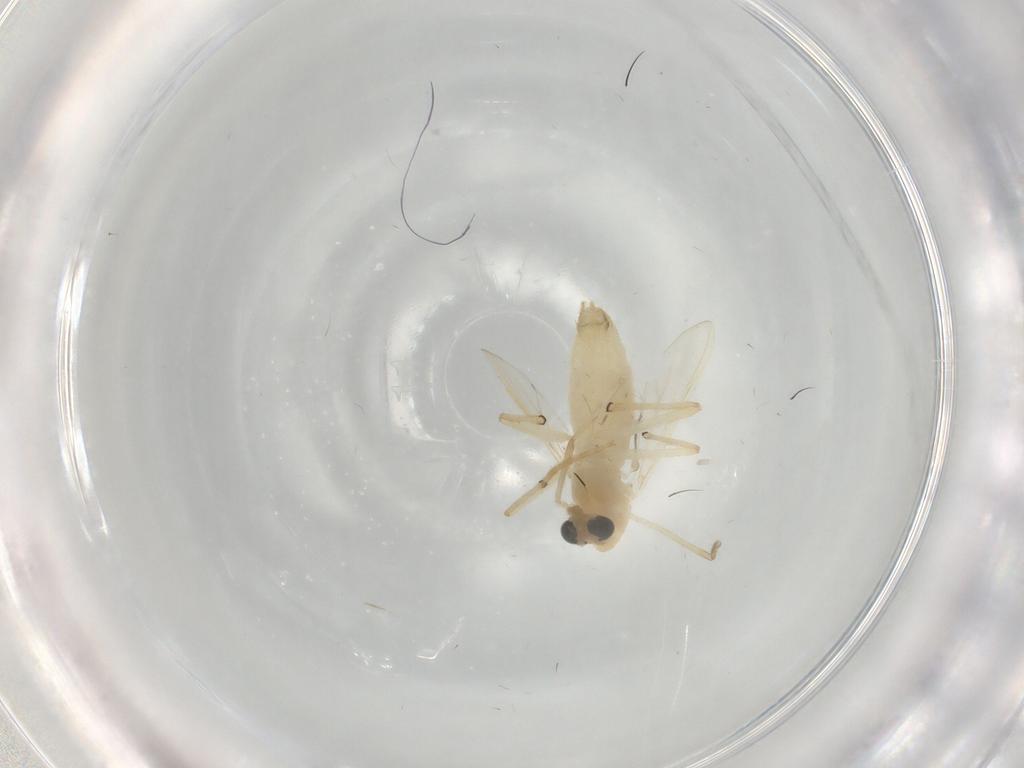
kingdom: Animalia
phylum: Arthropoda
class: Insecta
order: Diptera
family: Chironomidae
